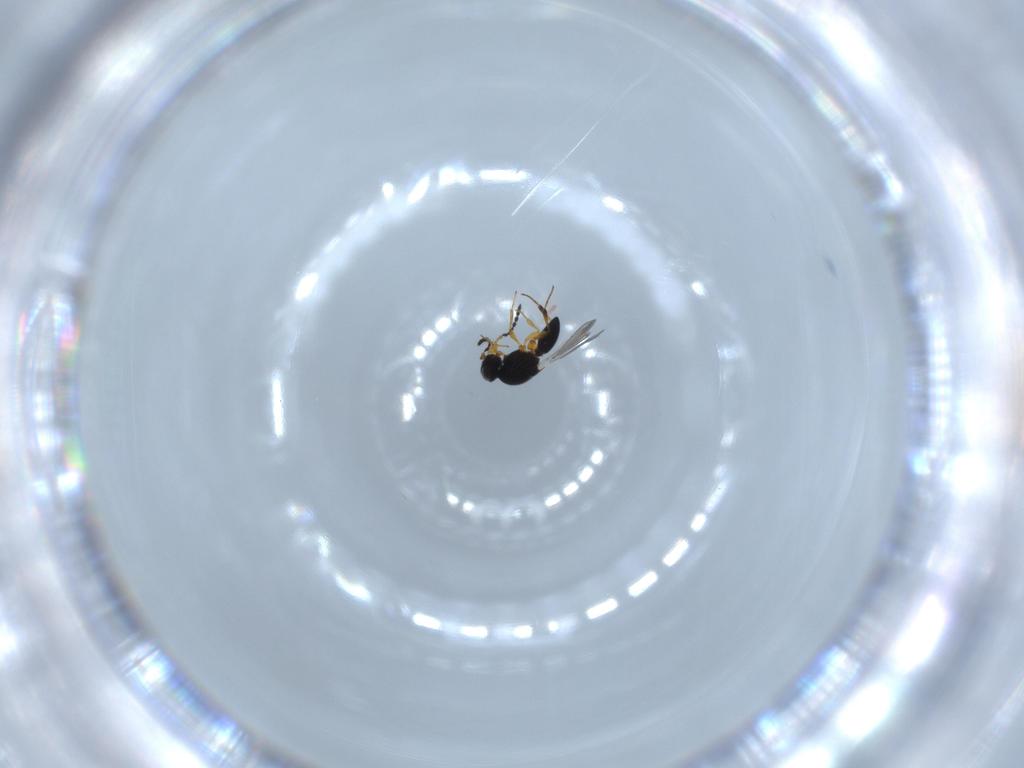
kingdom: Animalia
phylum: Arthropoda
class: Insecta
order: Hymenoptera
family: Platygastridae
